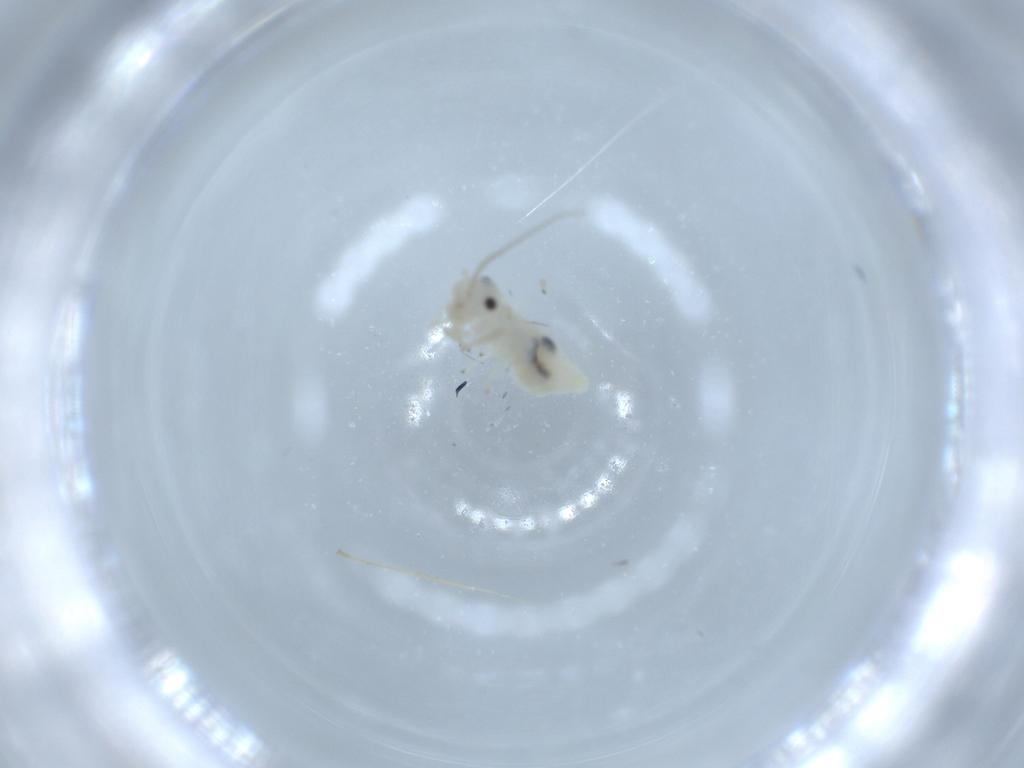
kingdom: Animalia
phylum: Arthropoda
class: Insecta
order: Psocodea
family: Caeciliusidae
